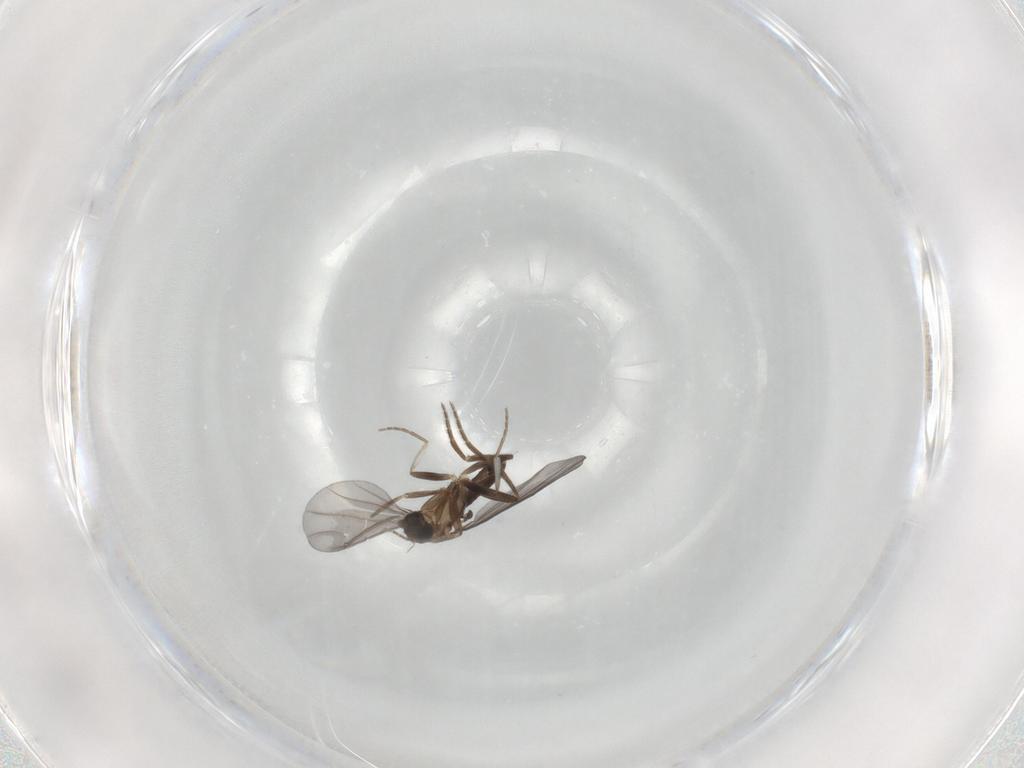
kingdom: Animalia
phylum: Arthropoda
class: Insecta
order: Diptera
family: Phoridae
